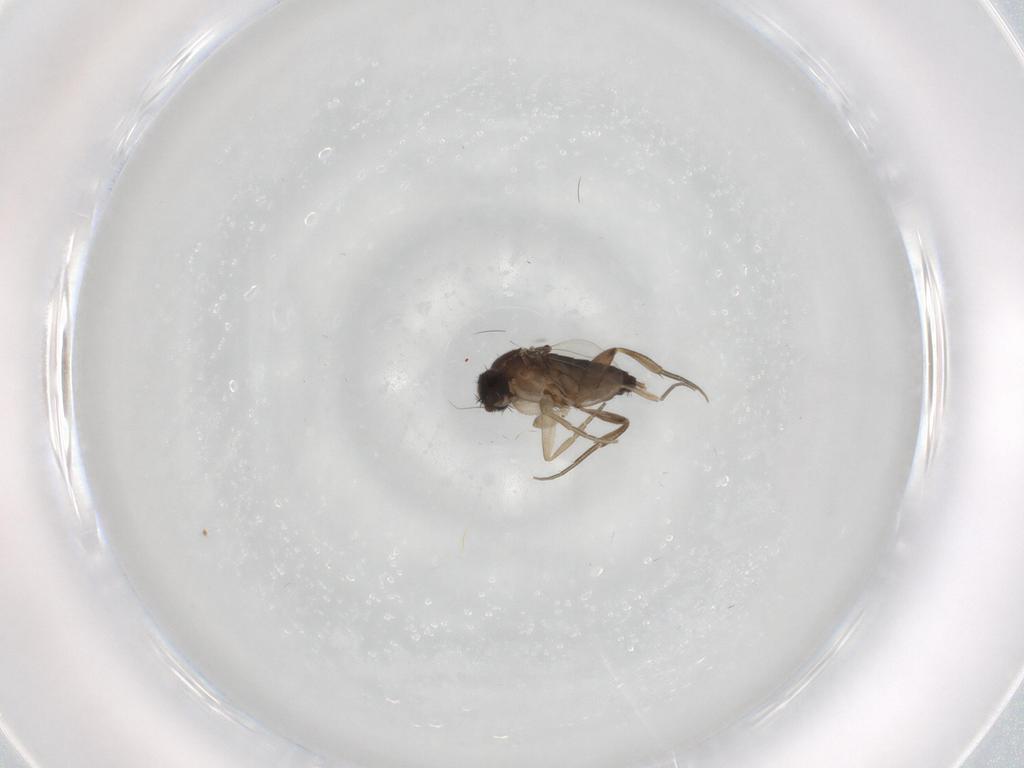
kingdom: Animalia
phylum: Arthropoda
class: Insecta
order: Diptera
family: Phoridae
